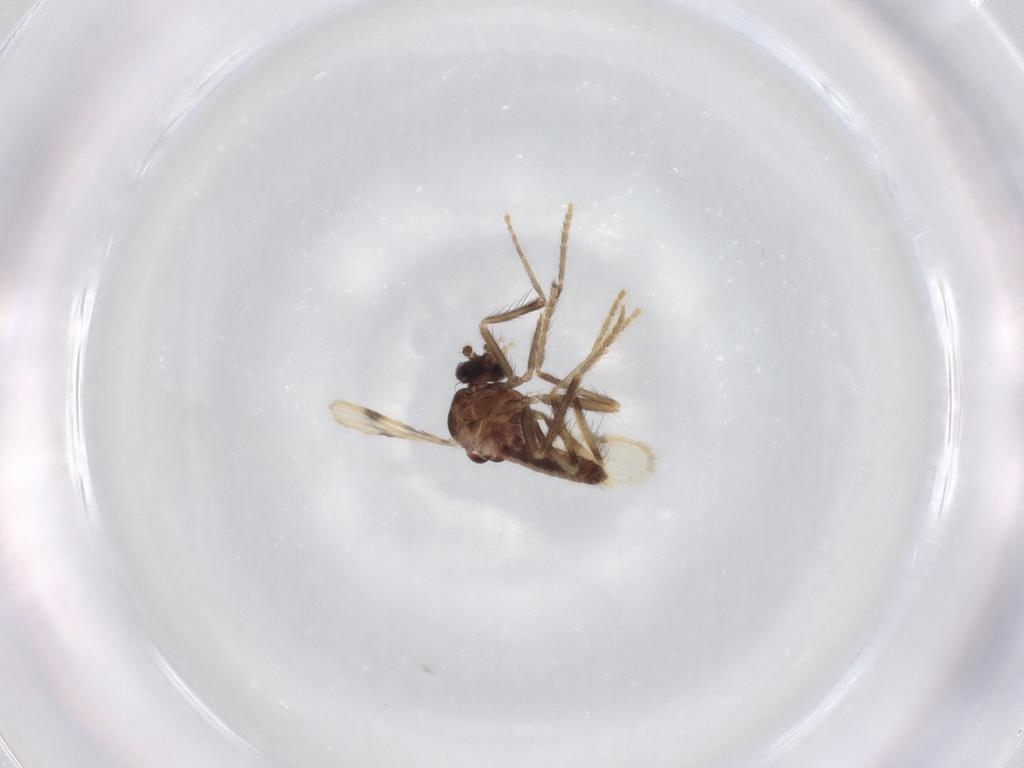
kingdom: Animalia
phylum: Arthropoda
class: Insecta
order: Diptera
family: Corethrellidae
